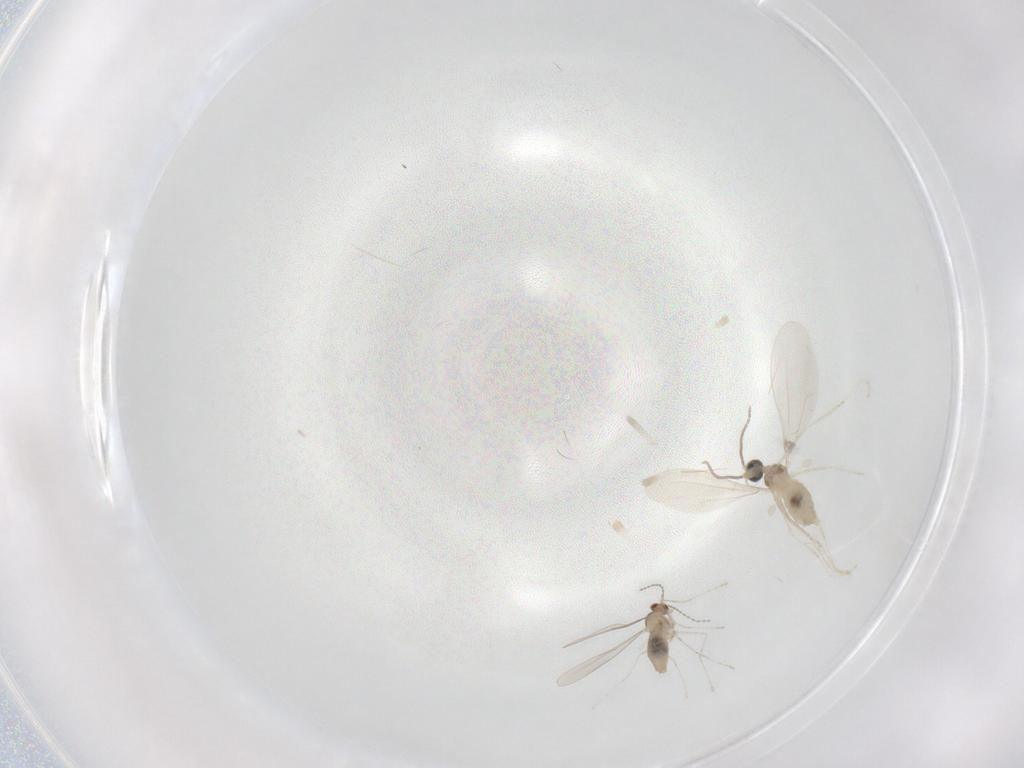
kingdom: Animalia
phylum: Arthropoda
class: Insecta
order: Diptera
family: Cecidomyiidae
